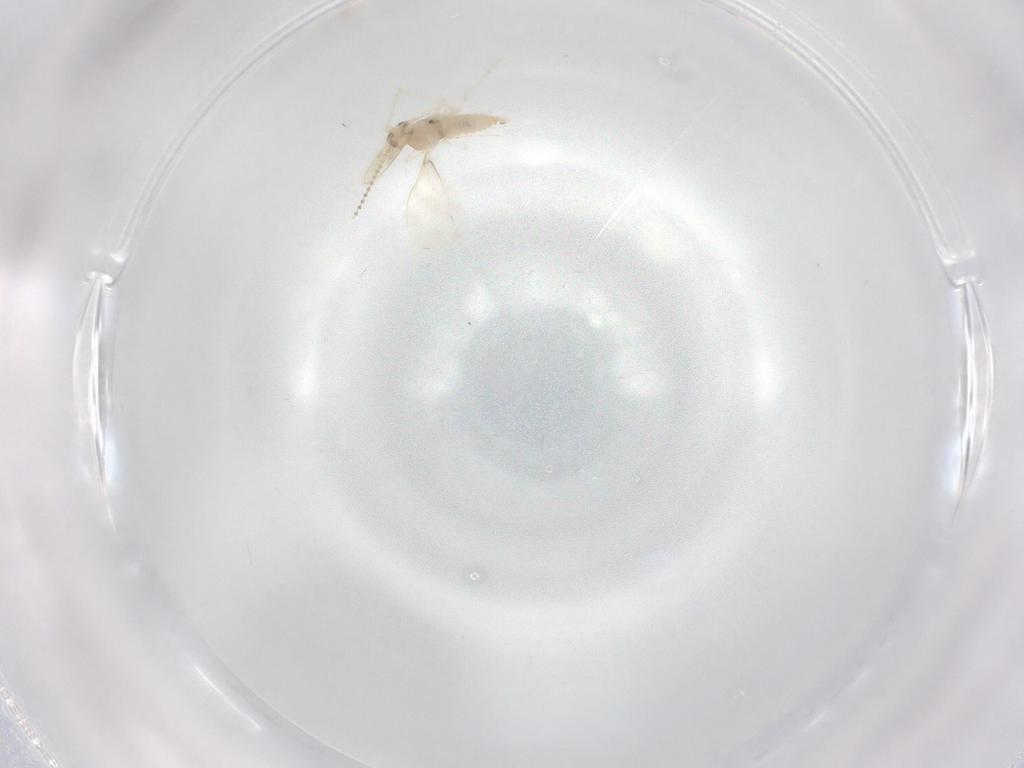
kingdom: Animalia
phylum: Arthropoda
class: Insecta
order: Diptera
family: Cecidomyiidae
